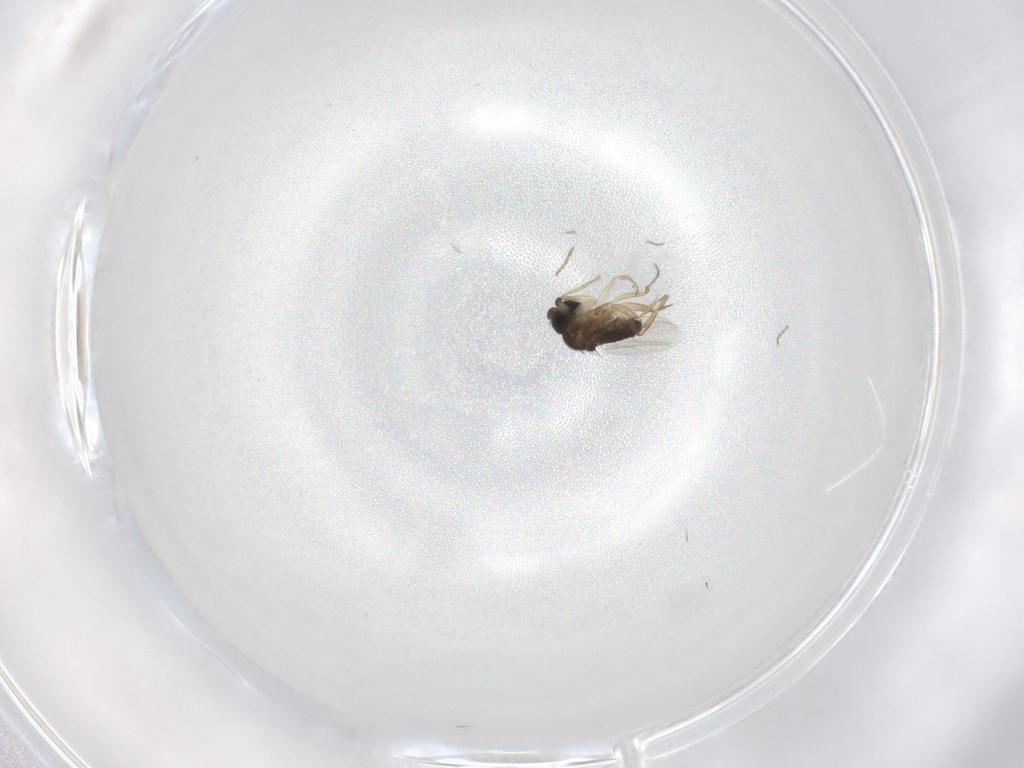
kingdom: Animalia
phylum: Arthropoda
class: Insecta
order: Diptera
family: Phoridae
